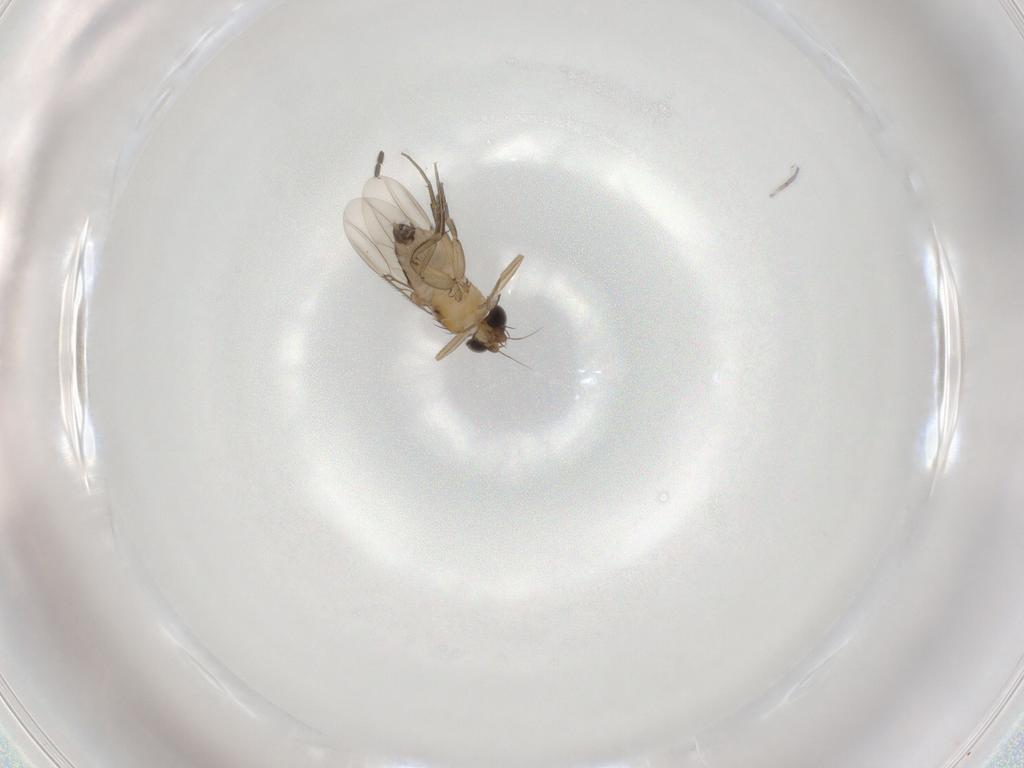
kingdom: Animalia
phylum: Arthropoda
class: Insecta
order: Diptera
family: Phoridae
